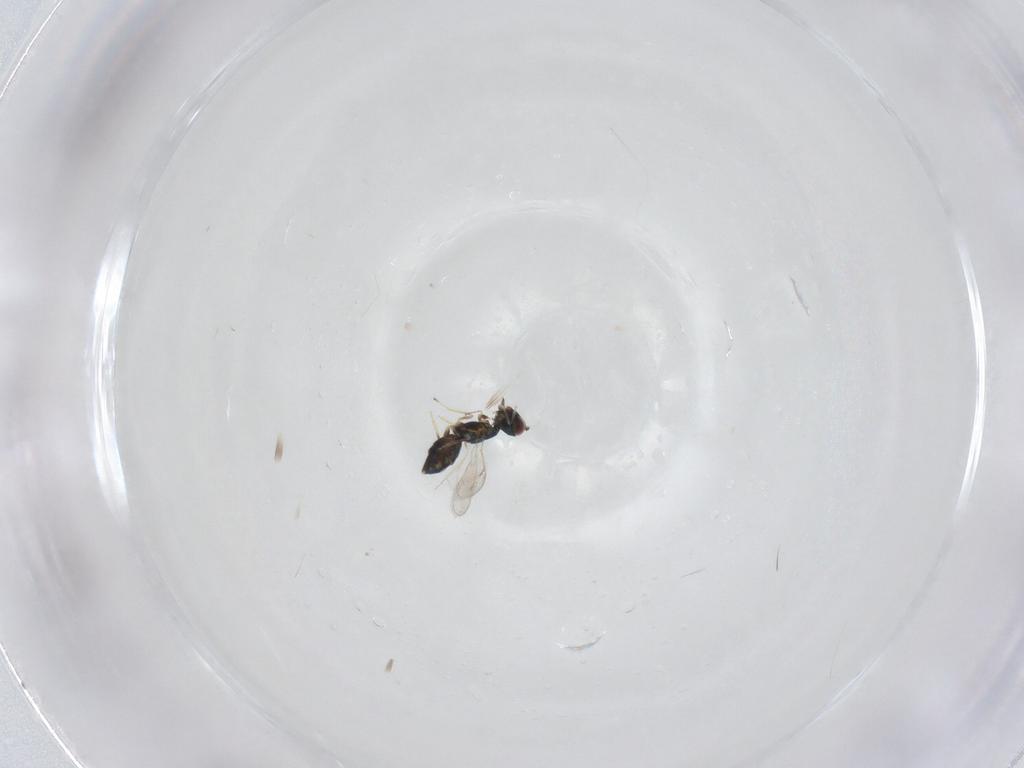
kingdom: Animalia
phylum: Arthropoda
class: Insecta
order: Hymenoptera
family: Eulophidae
